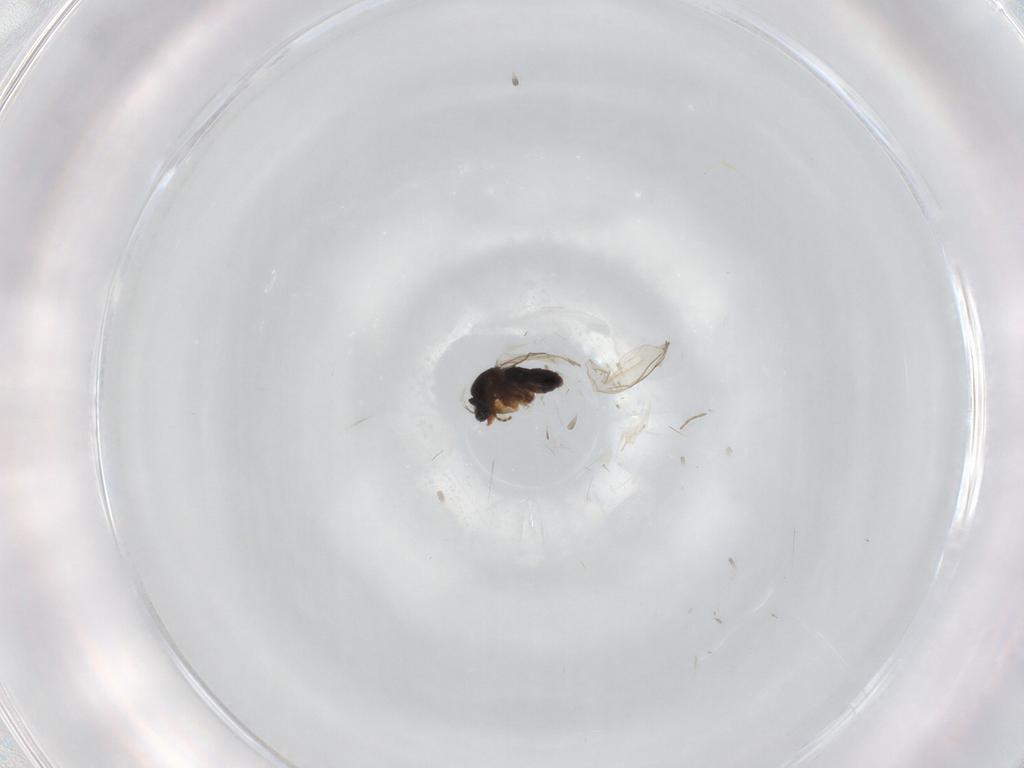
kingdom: Animalia
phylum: Arthropoda
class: Insecta
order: Diptera
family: Phoridae
